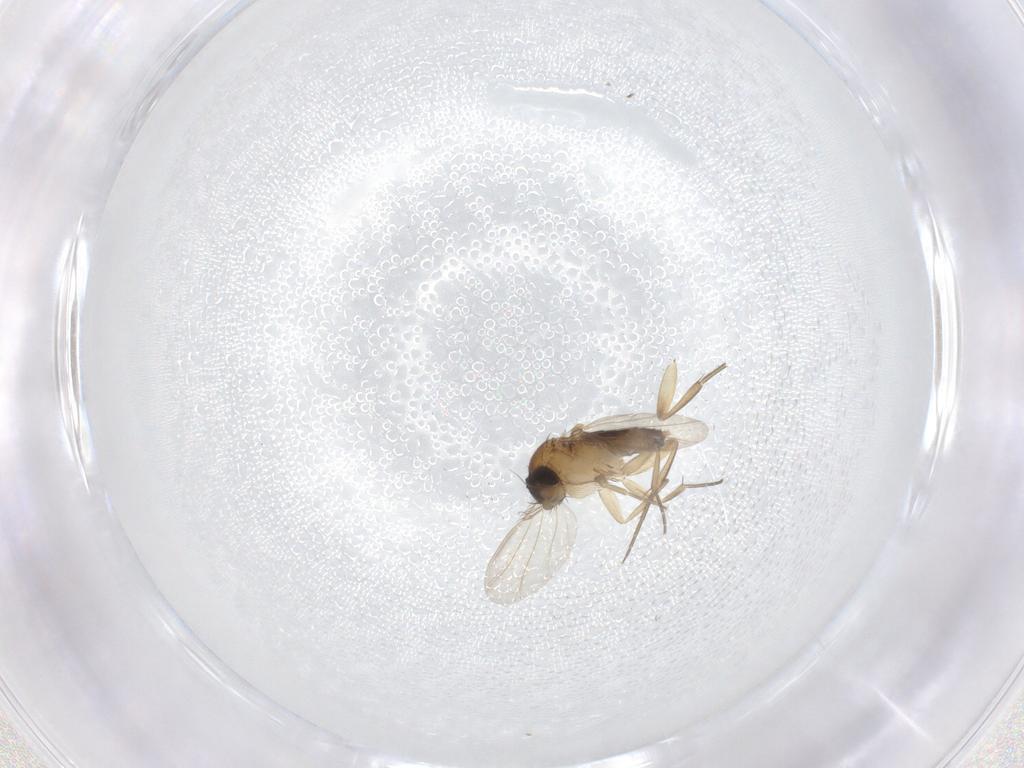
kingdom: Animalia
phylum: Arthropoda
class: Insecta
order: Diptera
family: Phoridae
